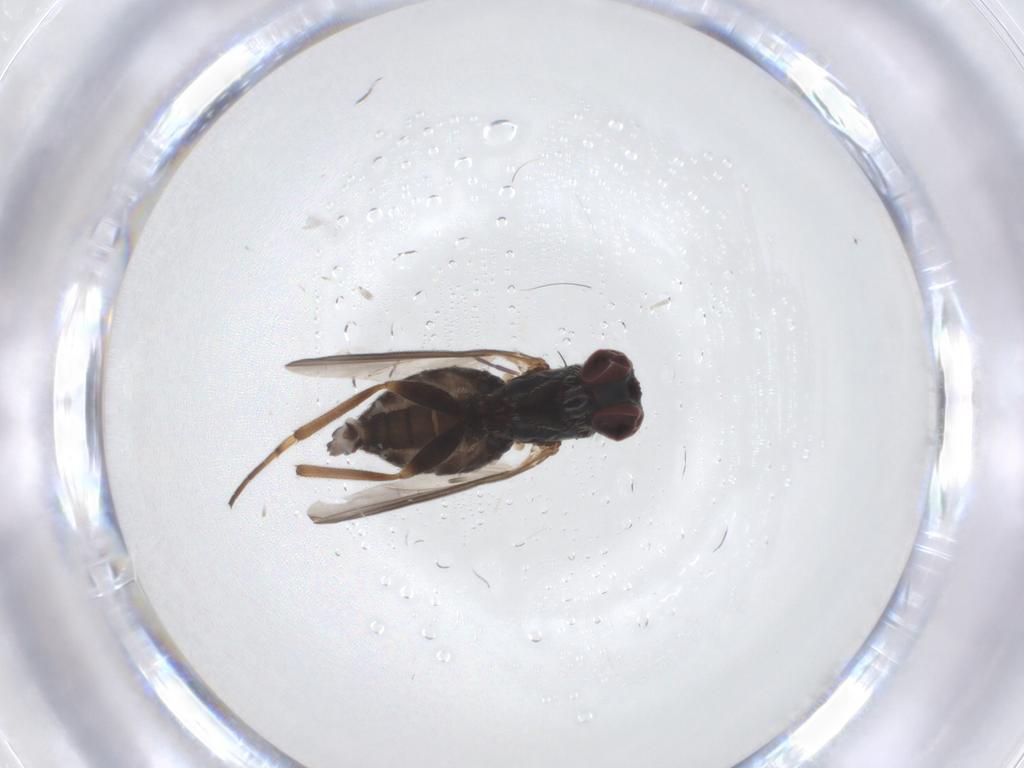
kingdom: Animalia
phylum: Arthropoda
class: Insecta
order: Diptera
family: Dolichopodidae
